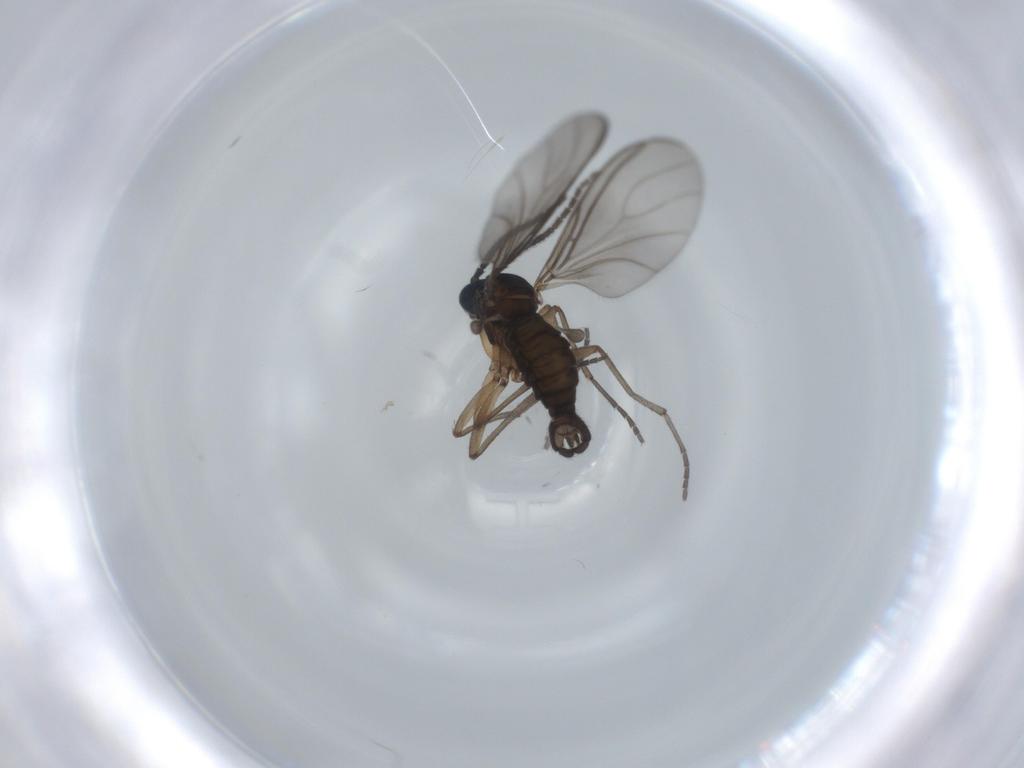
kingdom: Animalia
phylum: Arthropoda
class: Insecta
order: Diptera
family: Sciaridae
